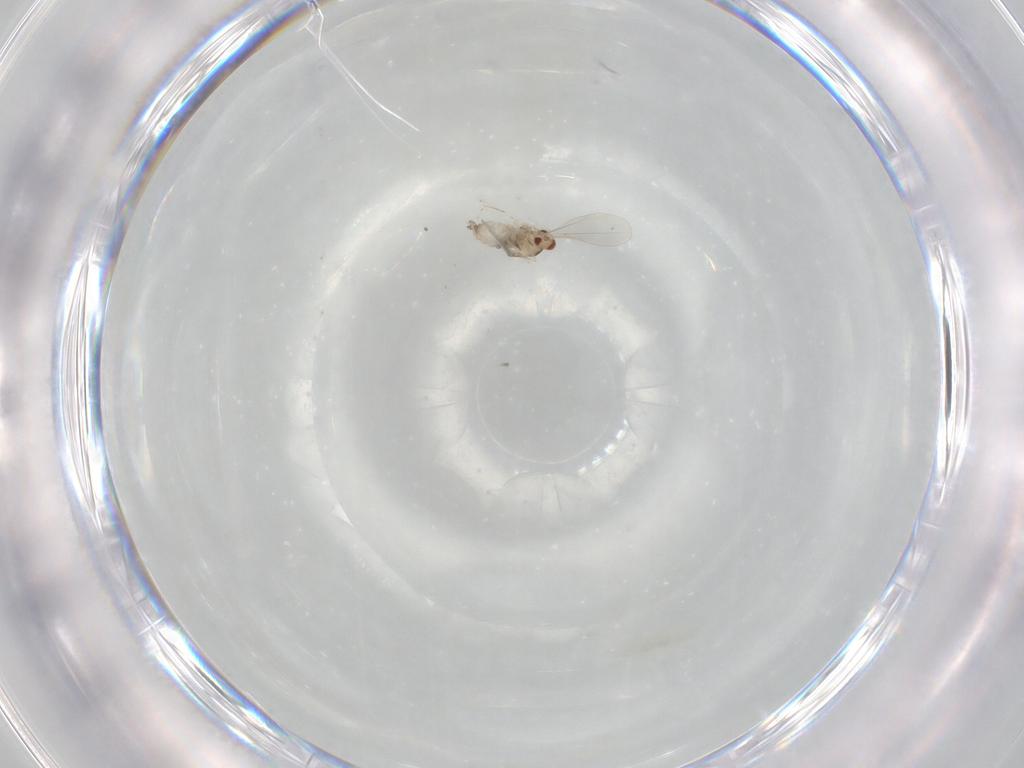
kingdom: Animalia
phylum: Arthropoda
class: Insecta
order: Diptera
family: Cecidomyiidae
